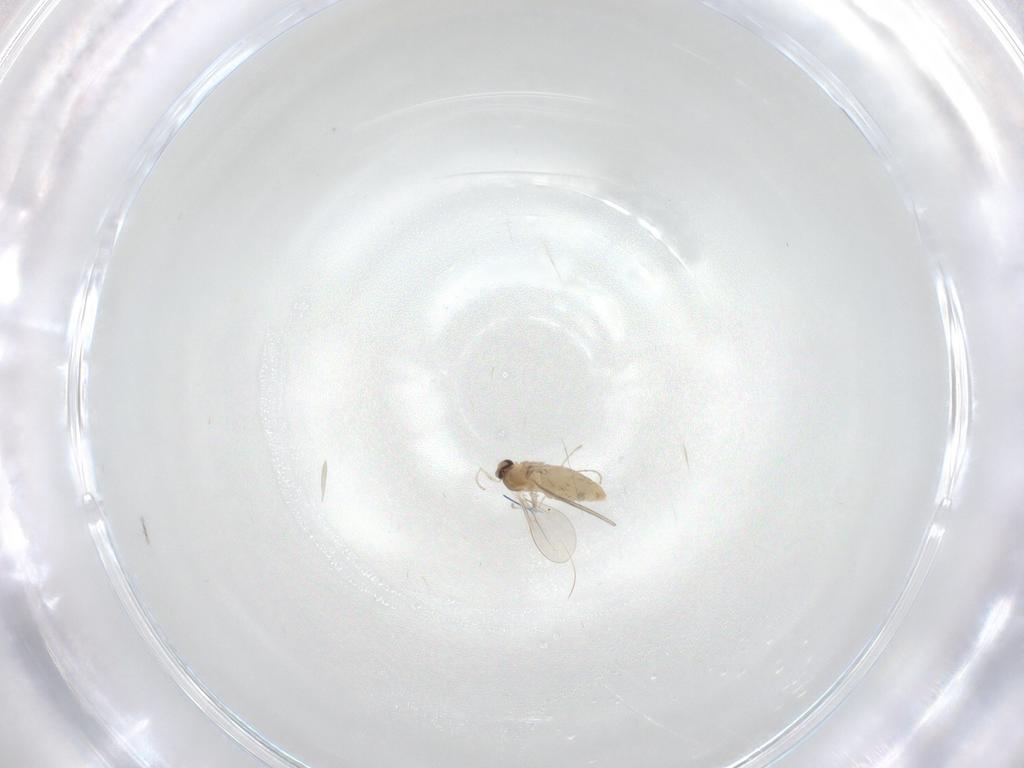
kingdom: Animalia
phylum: Arthropoda
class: Insecta
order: Diptera
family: Cecidomyiidae
